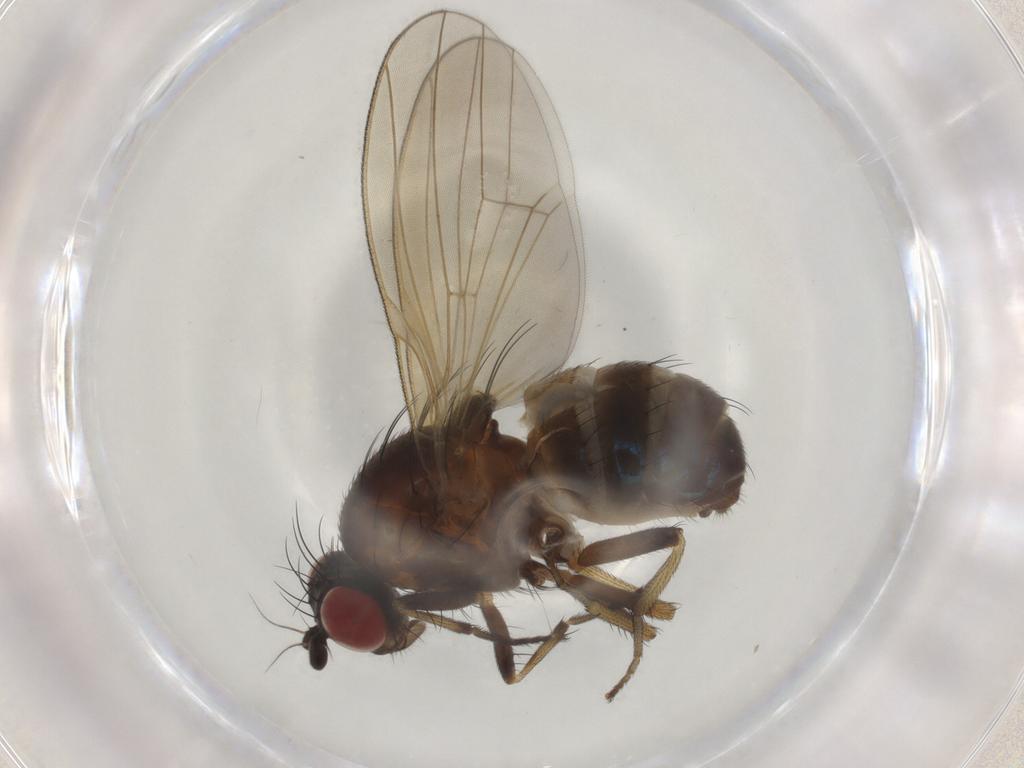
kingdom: Animalia
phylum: Arthropoda
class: Insecta
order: Diptera
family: Lauxaniidae
